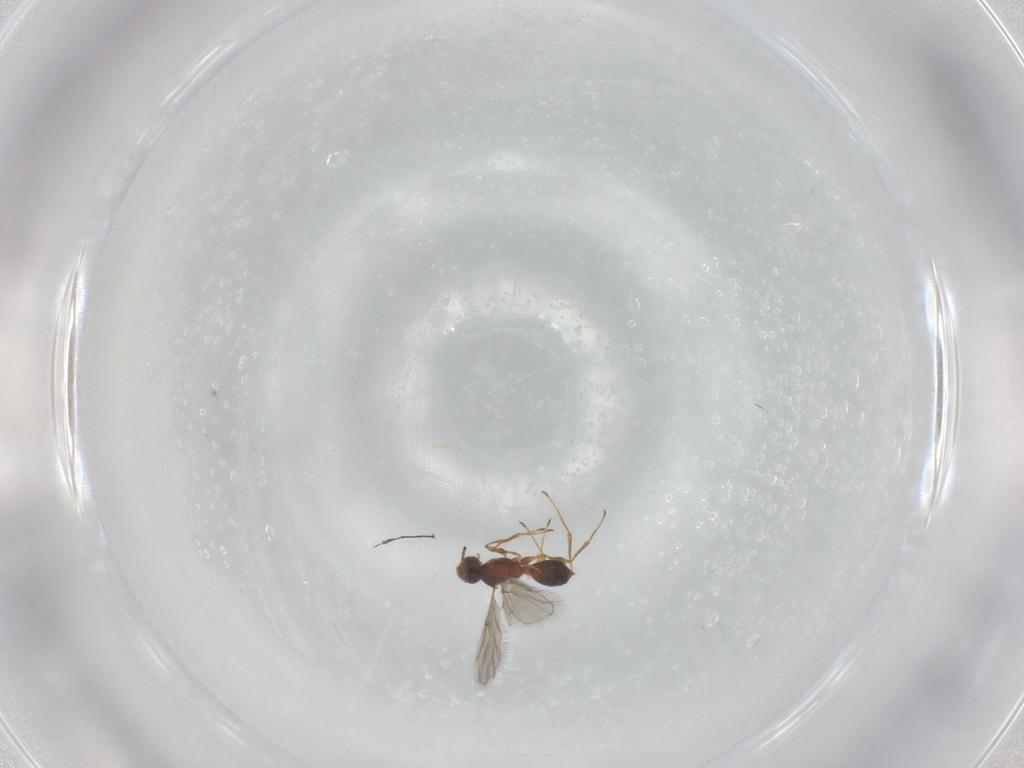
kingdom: Animalia
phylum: Arthropoda
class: Insecta
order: Hymenoptera
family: Diapriidae
